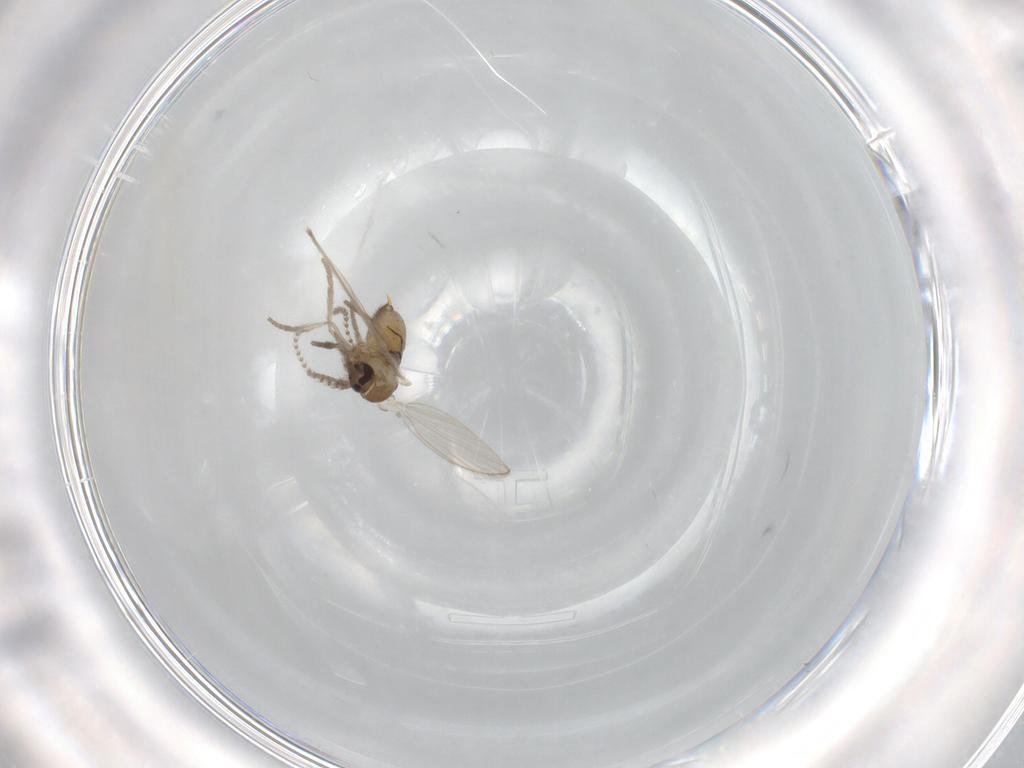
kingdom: Animalia
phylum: Arthropoda
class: Insecta
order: Diptera
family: Psychodidae
